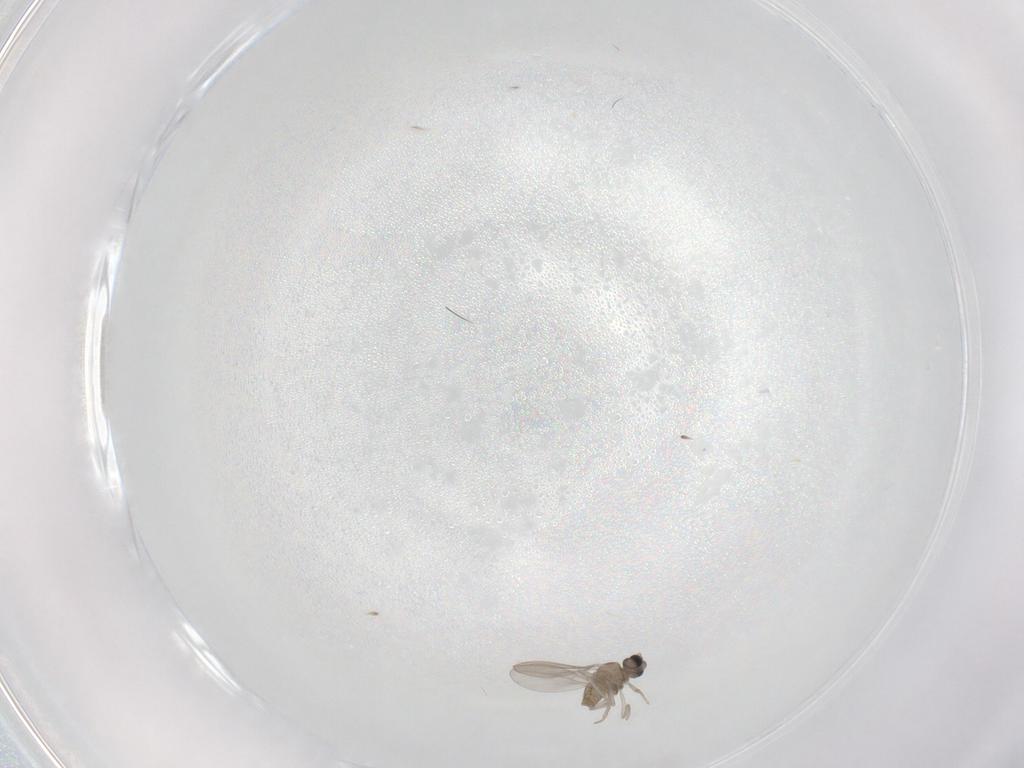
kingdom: Animalia
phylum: Arthropoda
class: Insecta
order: Diptera
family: Cecidomyiidae
